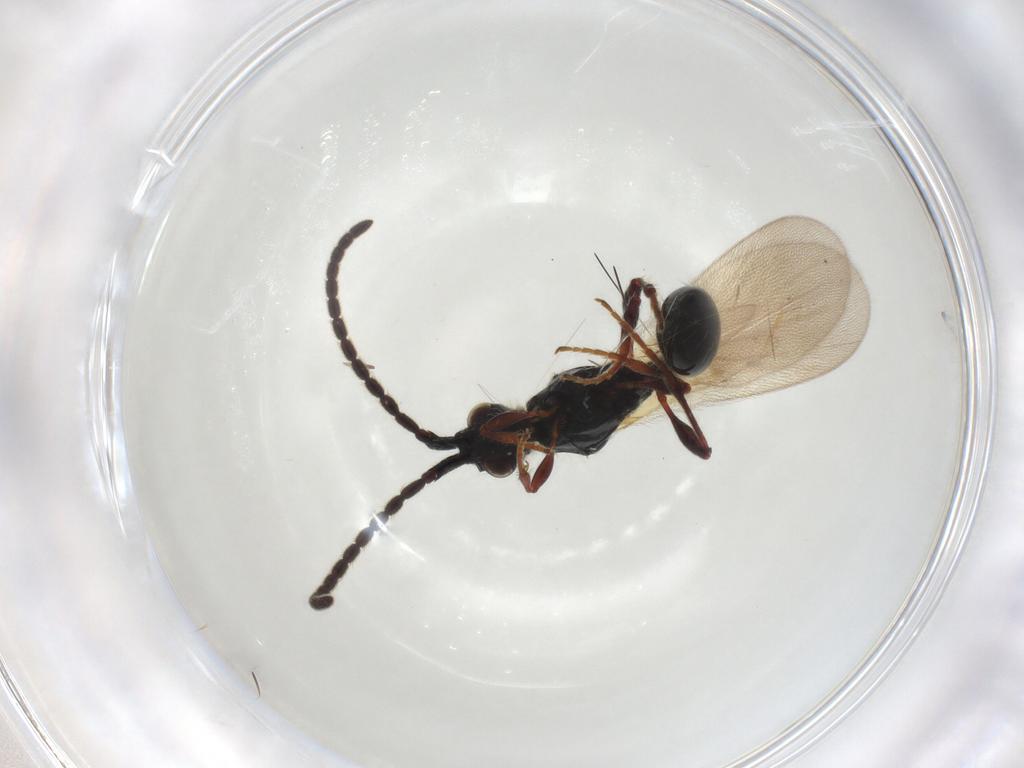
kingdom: Animalia
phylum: Arthropoda
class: Insecta
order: Hymenoptera
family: Diapriidae
